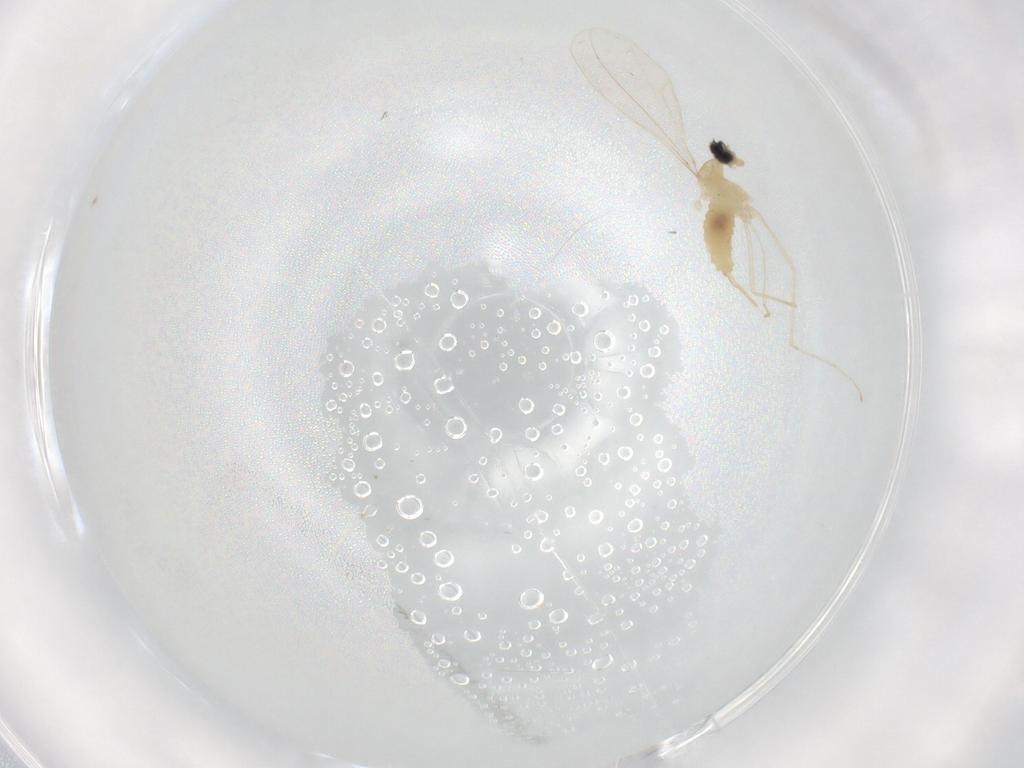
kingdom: Animalia
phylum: Arthropoda
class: Insecta
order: Diptera
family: Chironomidae
